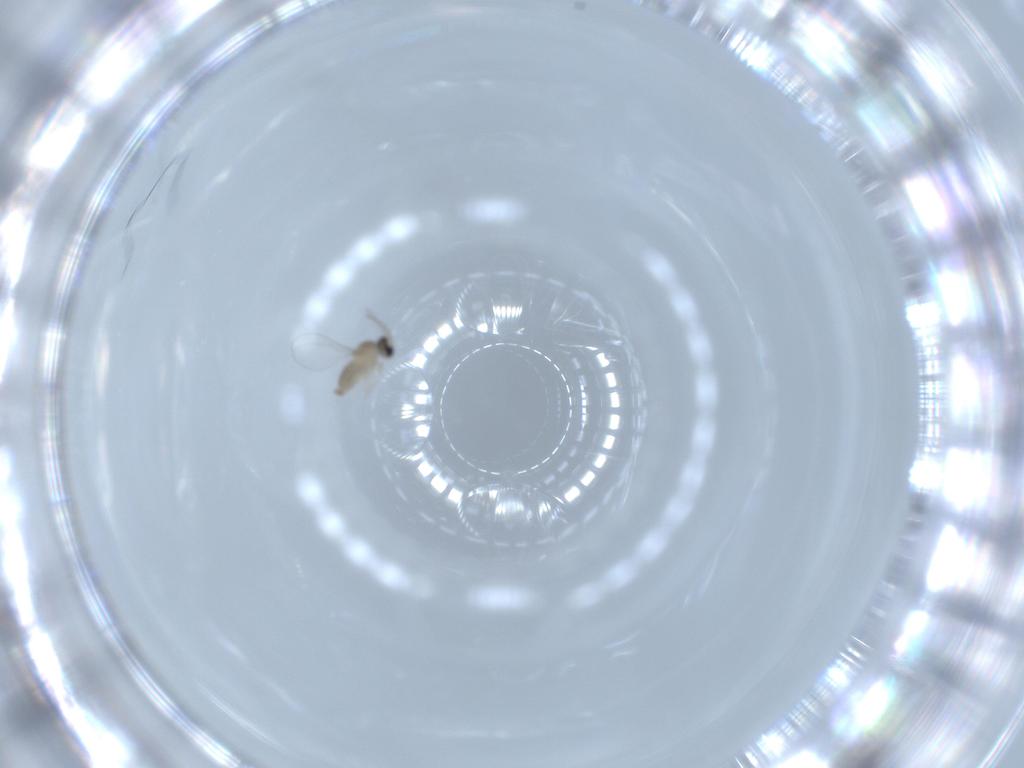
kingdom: Animalia
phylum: Arthropoda
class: Insecta
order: Diptera
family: Cecidomyiidae
